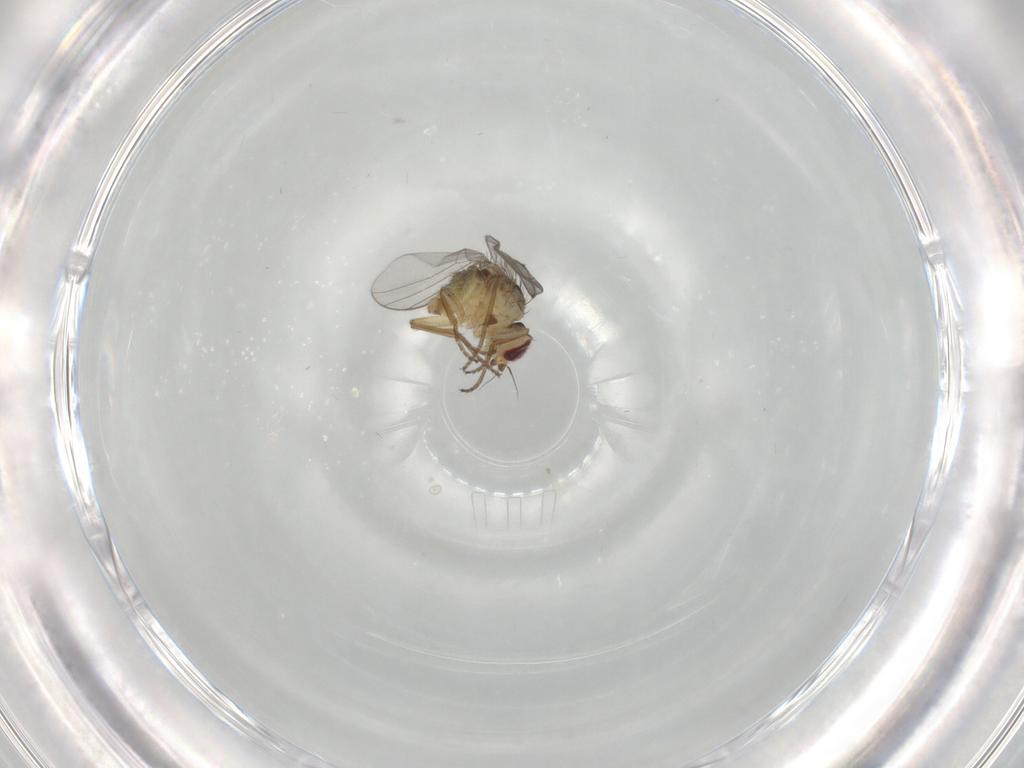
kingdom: Animalia
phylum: Arthropoda
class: Insecta
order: Diptera
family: Agromyzidae
